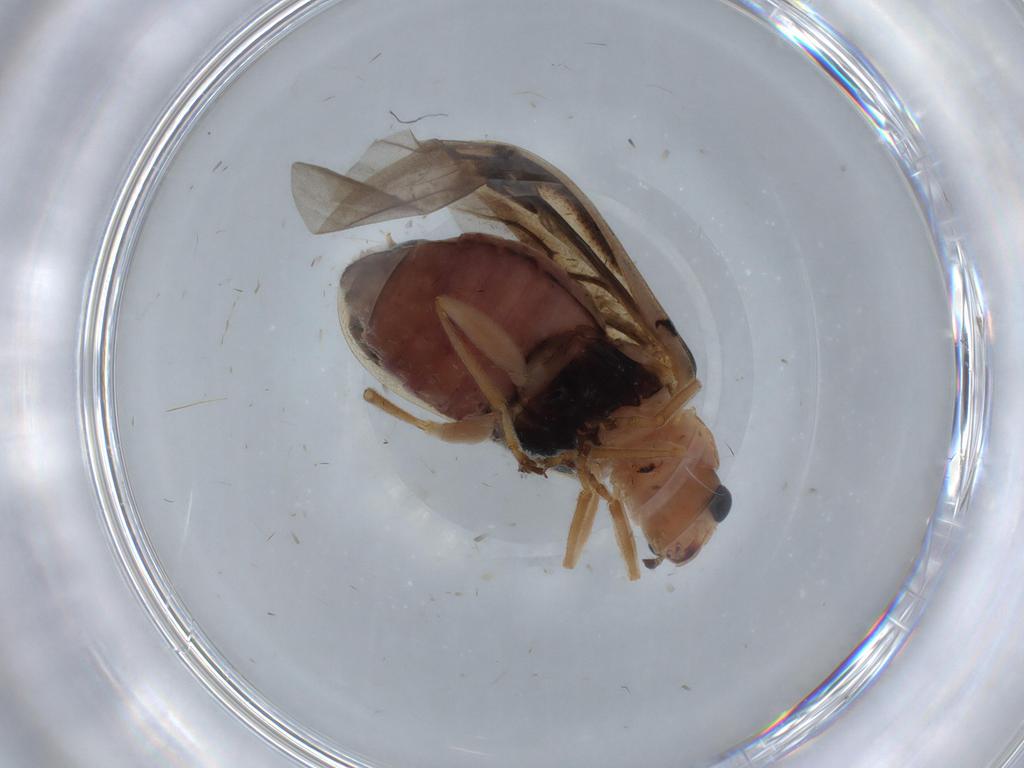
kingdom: Animalia
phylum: Arthropoda
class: Insecta
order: Coleoptera
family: Chrysomelidae
